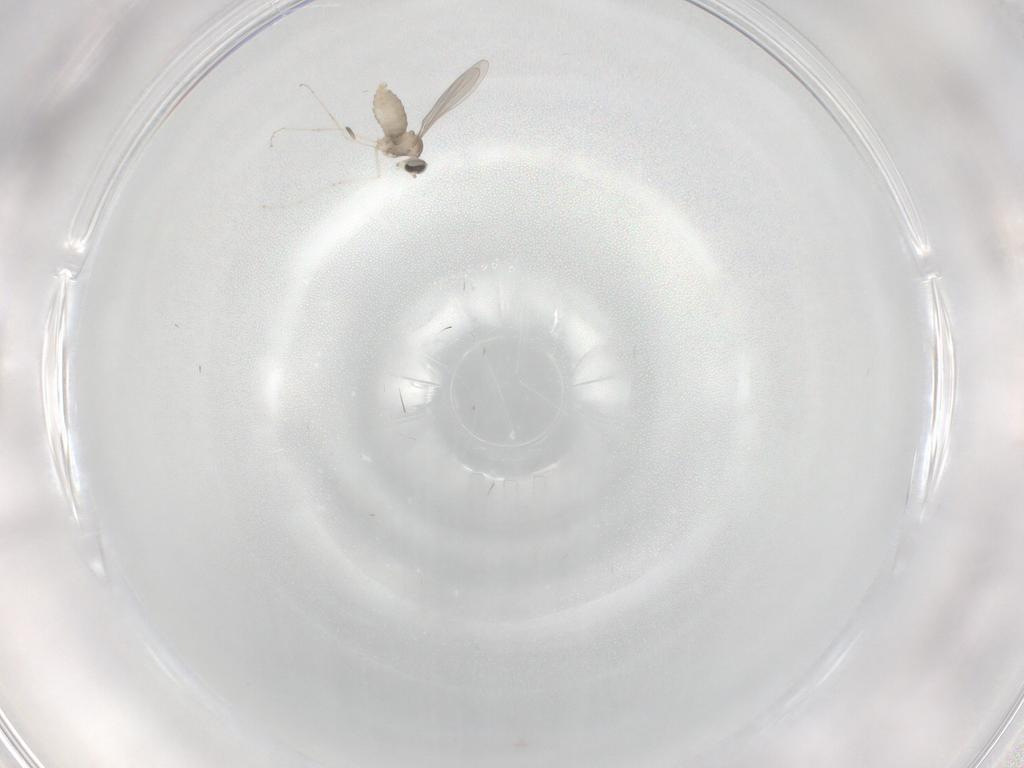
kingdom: Animalia
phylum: Arthropoda
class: Insecta
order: Diptera
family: Cecidomyiidae
